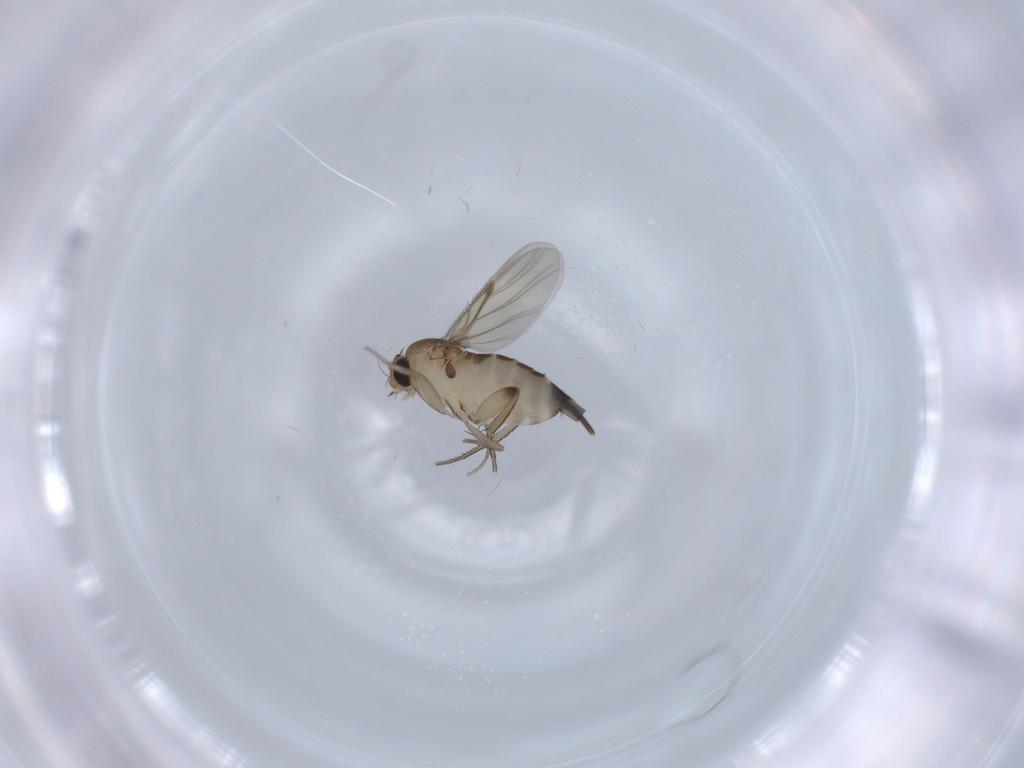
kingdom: Animalia
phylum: Arthropoda
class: Insecta
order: Diptera
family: Phoridae
